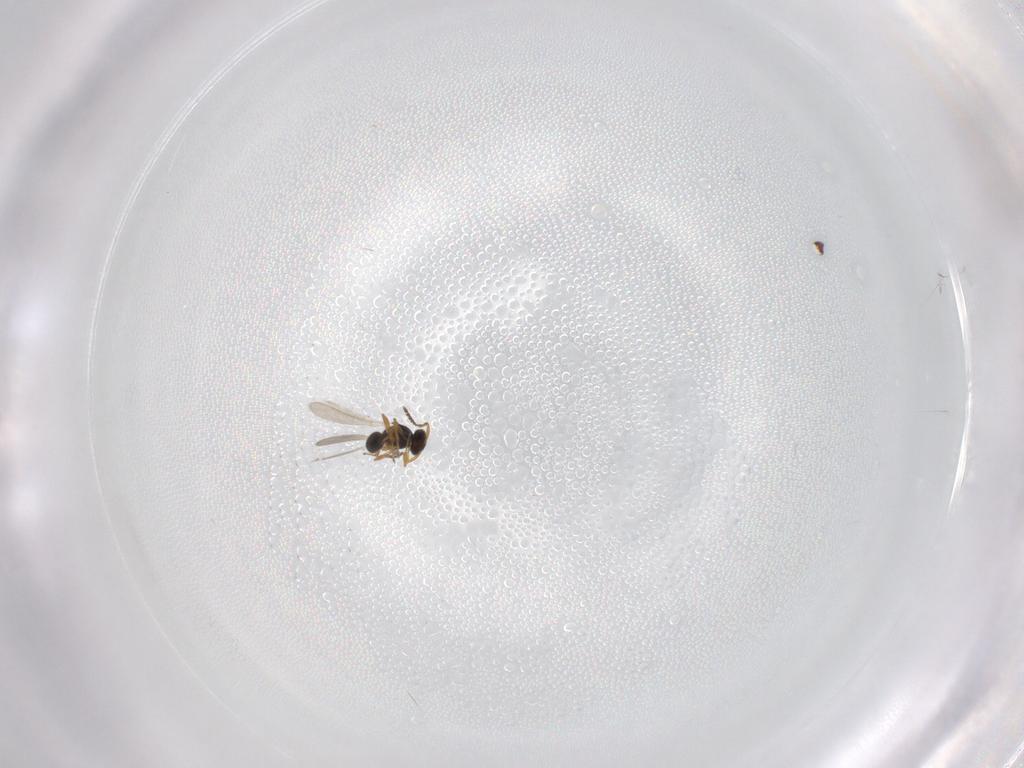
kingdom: Animalia
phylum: Arthropoda
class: Insecta
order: Hymenoptera
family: Platygastridae
